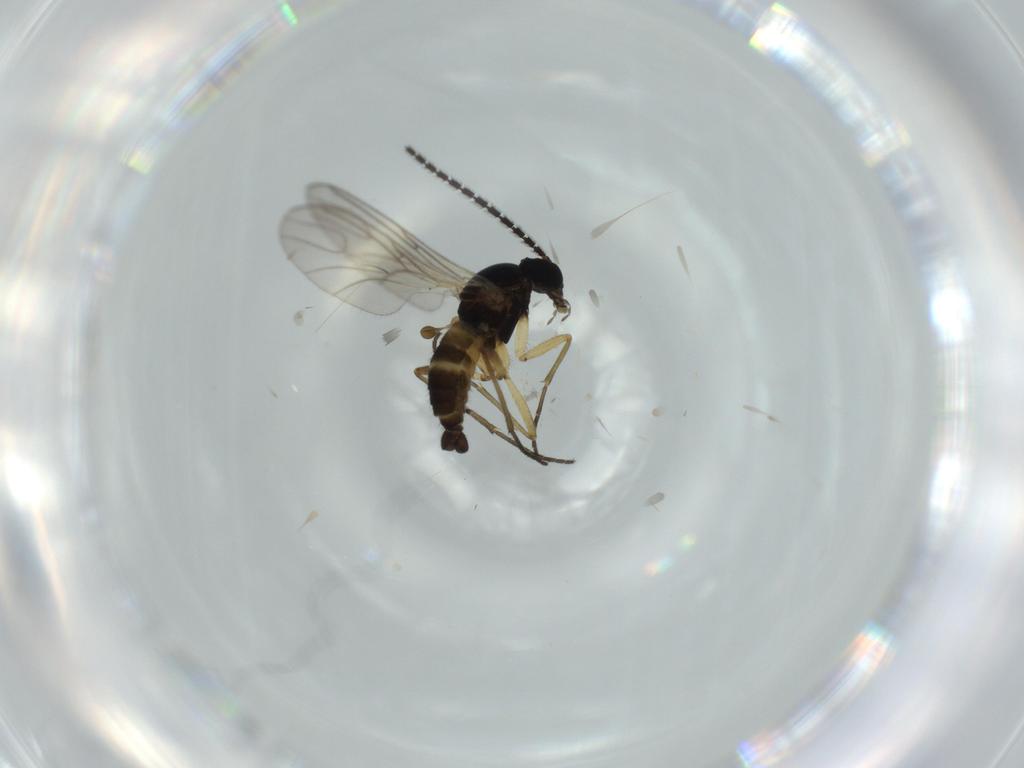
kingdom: Animalia
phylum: Arthropoda
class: Insecta
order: Diptera
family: Sciaridae
